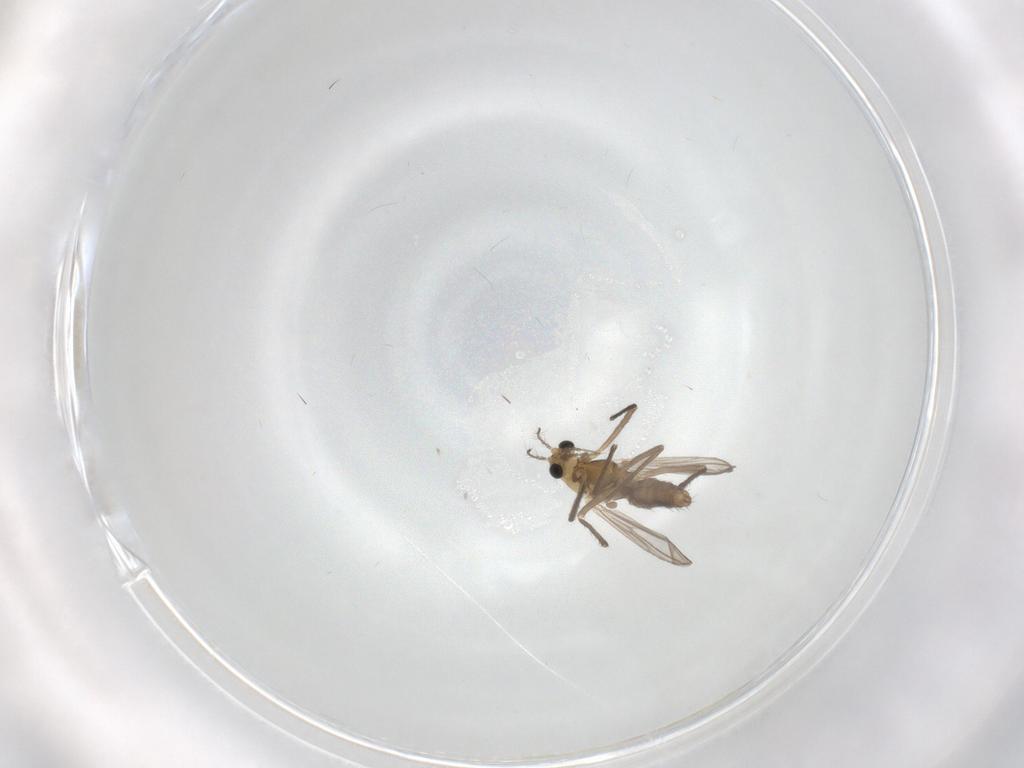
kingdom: Animalia
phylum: Arthropoda
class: Insecta
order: Diptera
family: Chironomidae
